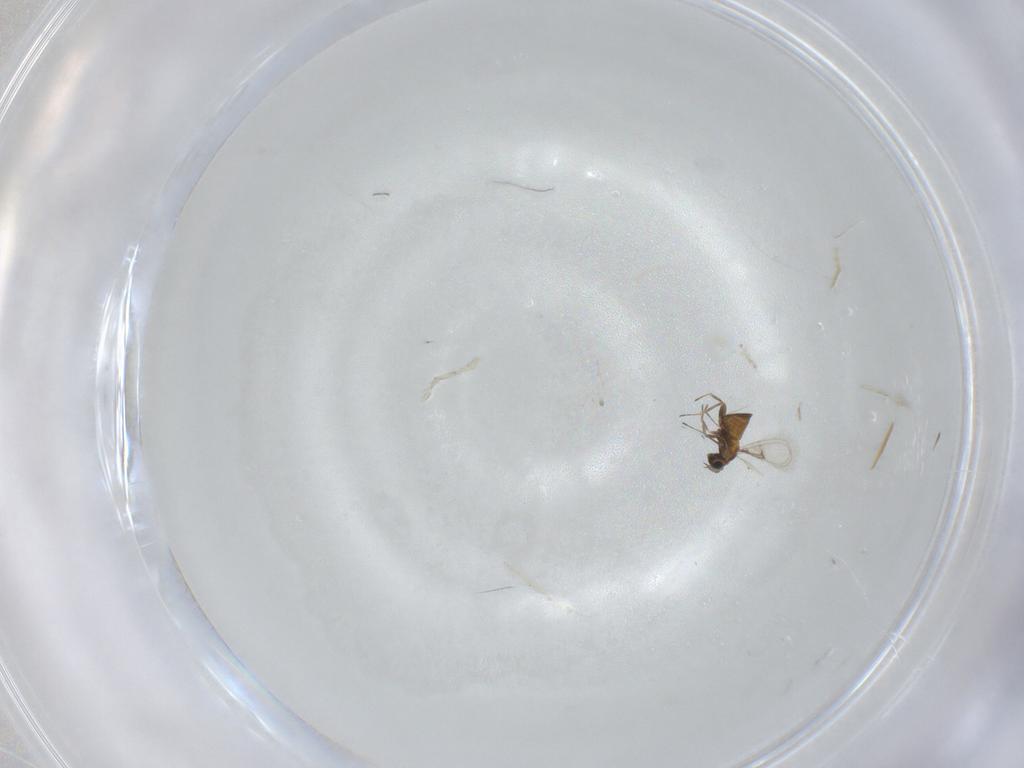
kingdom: Animalia
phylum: Arthropoda
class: Insecta
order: Hymenoptera
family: Trichogrammatidae
